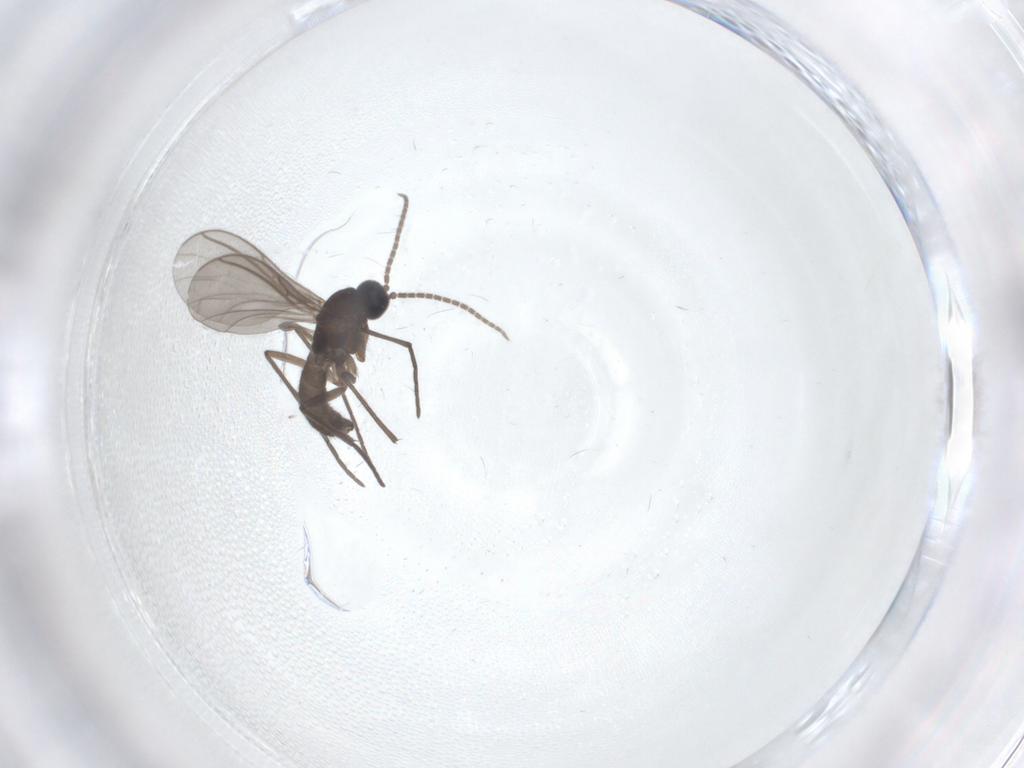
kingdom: Animalia
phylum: Arthropoda
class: Insecta
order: Diptera
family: Sciaridae
